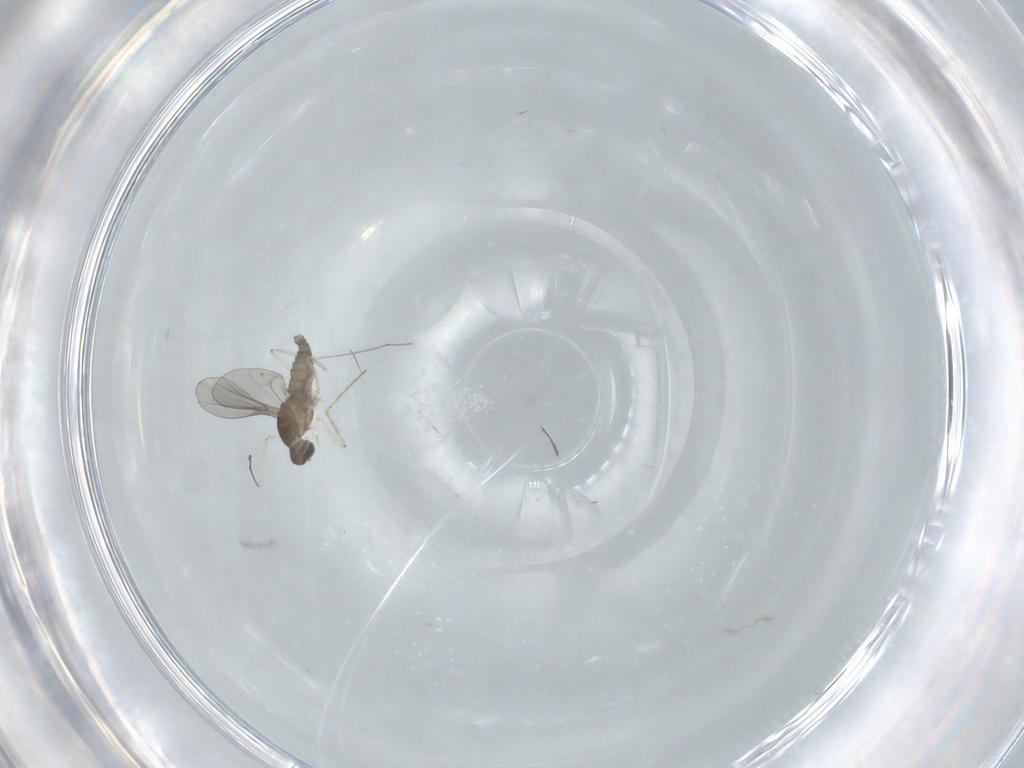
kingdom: Animalia
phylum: Arthropoda
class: Insecta
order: Diptera
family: Cecidomyiidae
